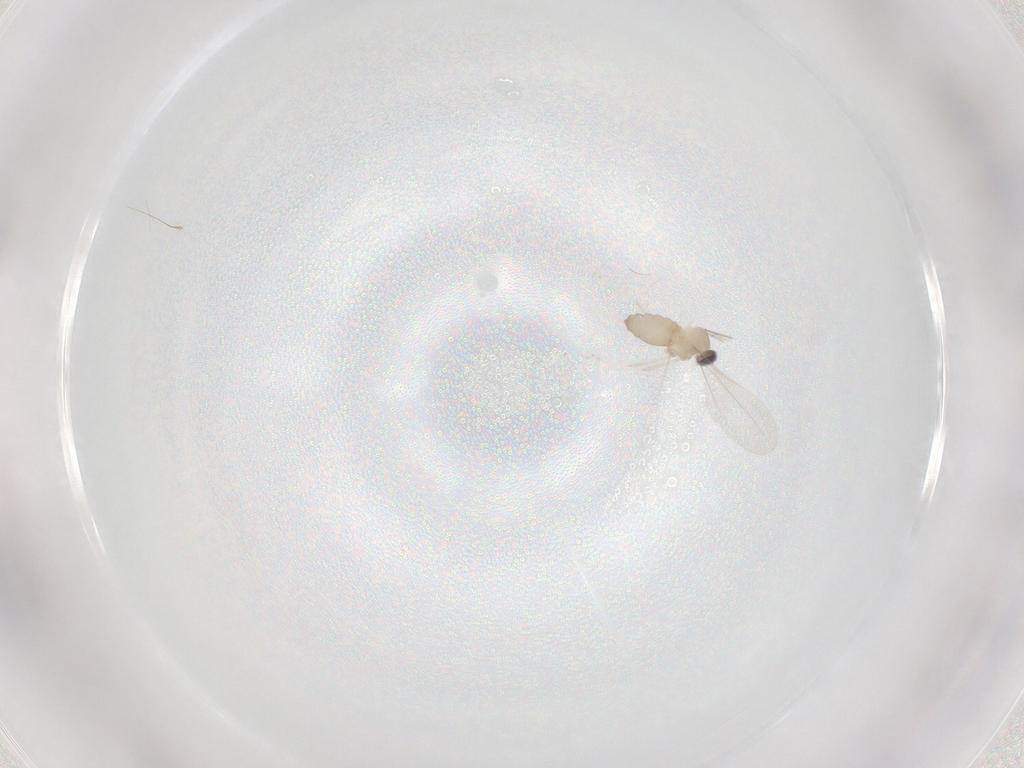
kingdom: Animalia
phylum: Arthropoda
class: Insecta
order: Diptera
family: Cecidomyiidae
